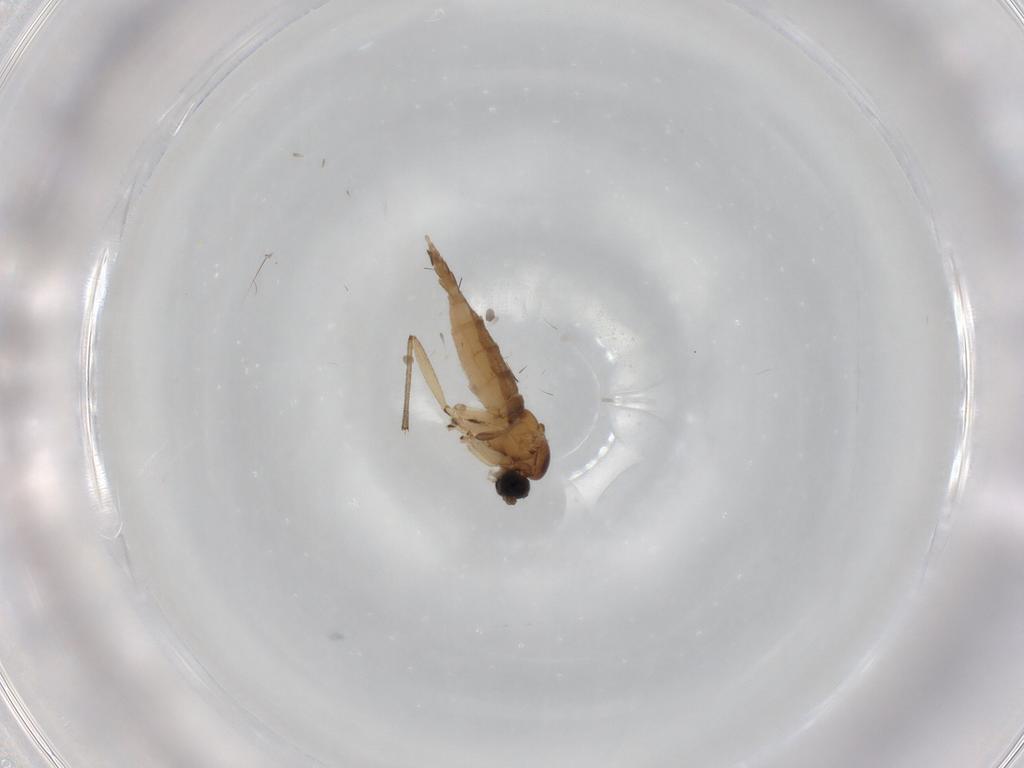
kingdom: Animalia
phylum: Arthropoda
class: Insecta
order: Diptera
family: Sciaridae
